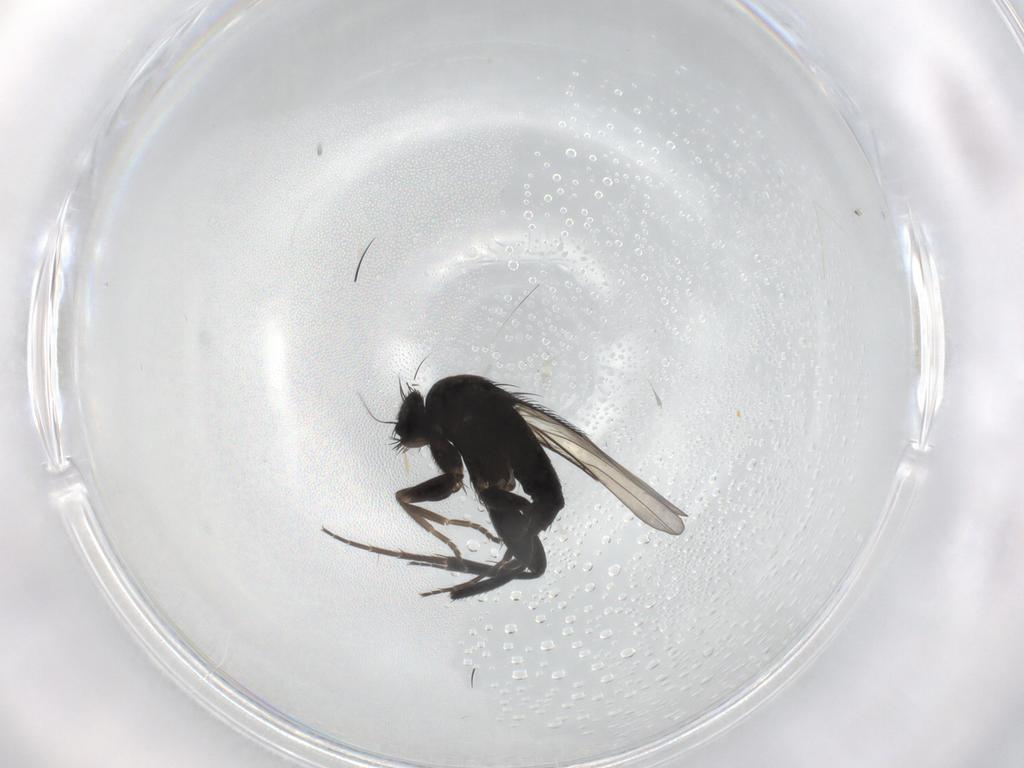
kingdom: Animalia
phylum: Arthropoda
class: Insecta
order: Diptera
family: Phoridae
